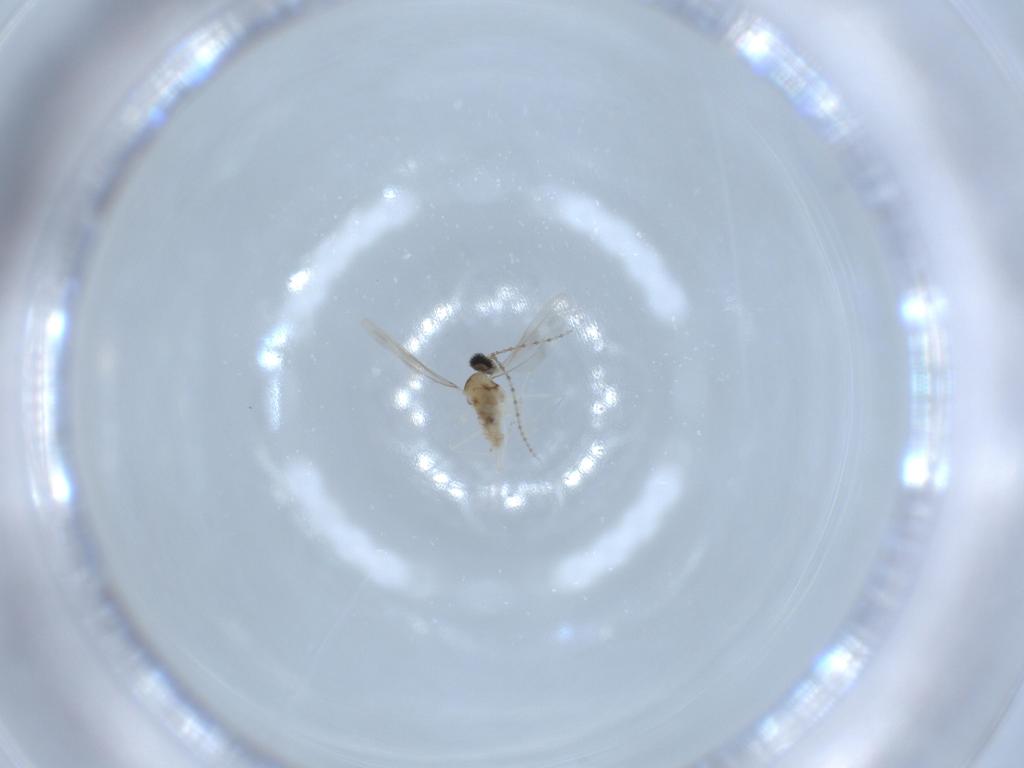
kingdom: Animalia
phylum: Arthropoda
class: Insecta
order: Diptera
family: Cecidomyiidae
